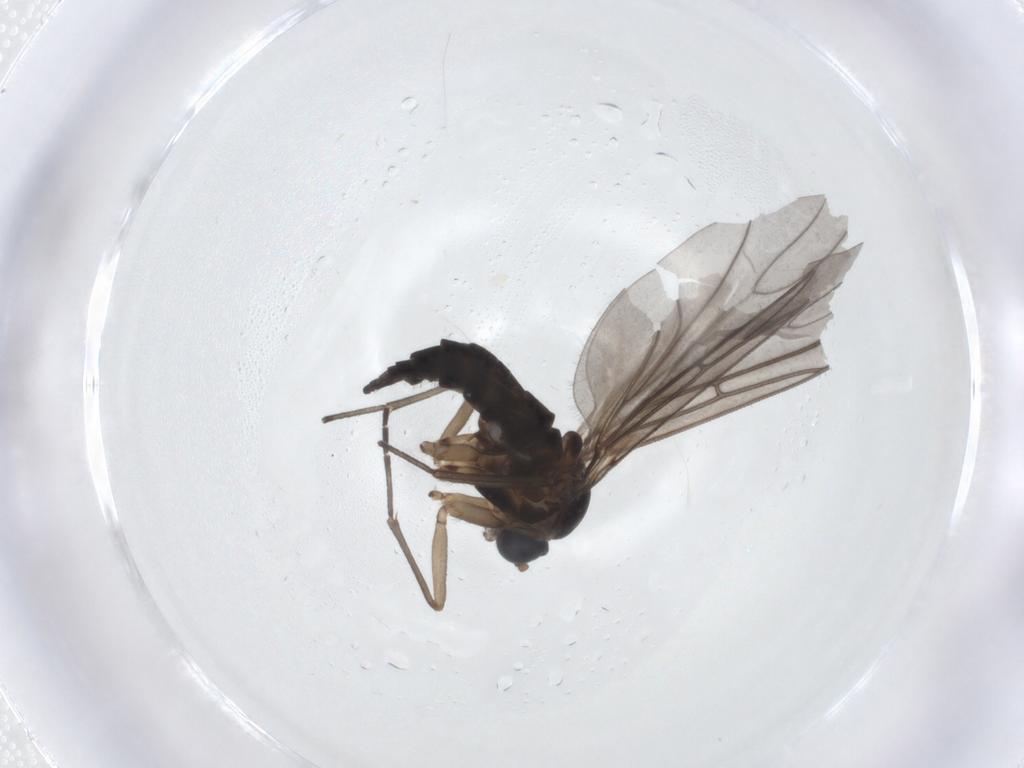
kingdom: Animalia
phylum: Arthropoda
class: Insecta
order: Diptera
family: Sciaridae
